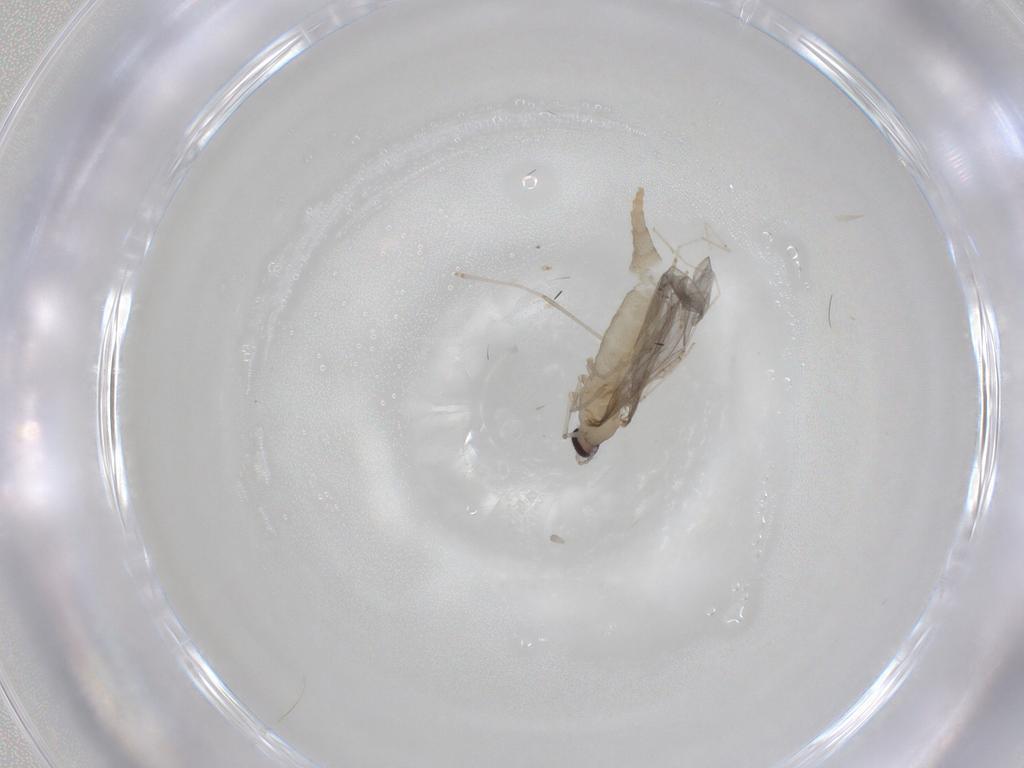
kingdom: Animalia
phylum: Arthropoda
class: Insecta
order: Diptera
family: Cecidomyiidae
